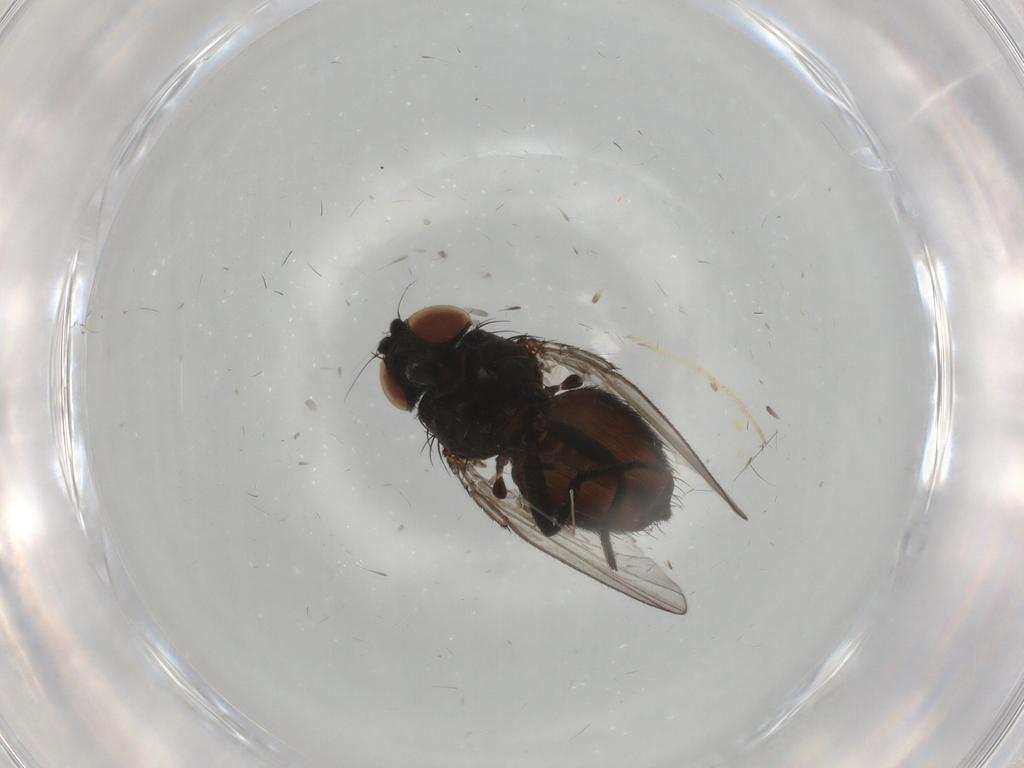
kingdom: Animalia
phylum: Arthropoda
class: Insecta
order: Diptera
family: Milichiidae
